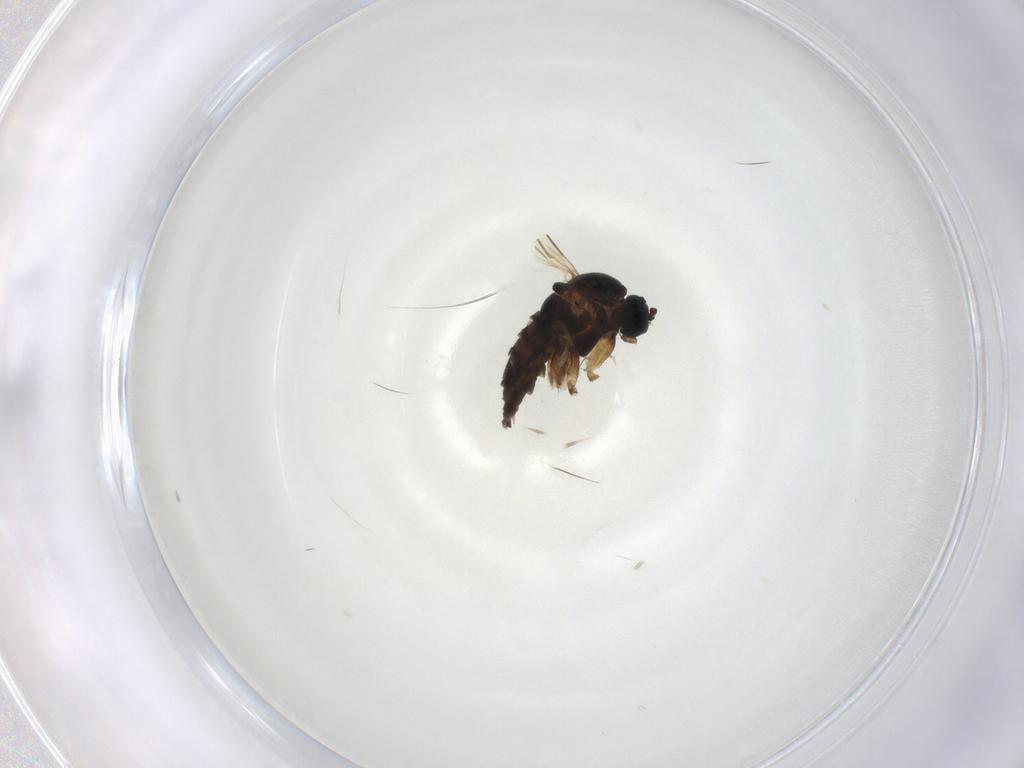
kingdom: Animalia
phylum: Arthropoda
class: Insecta
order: Diptera
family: Sciaridae
